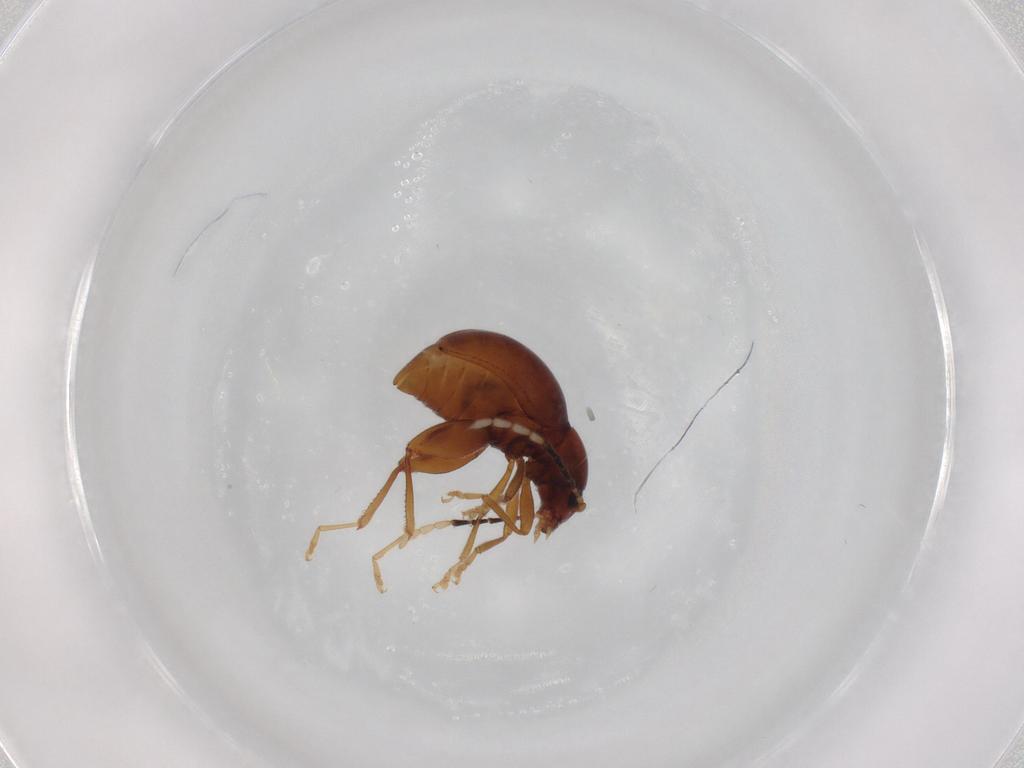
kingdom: Animalia
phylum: Arthropoda
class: Insecta
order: Coleoptera
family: Chrysomelidae
